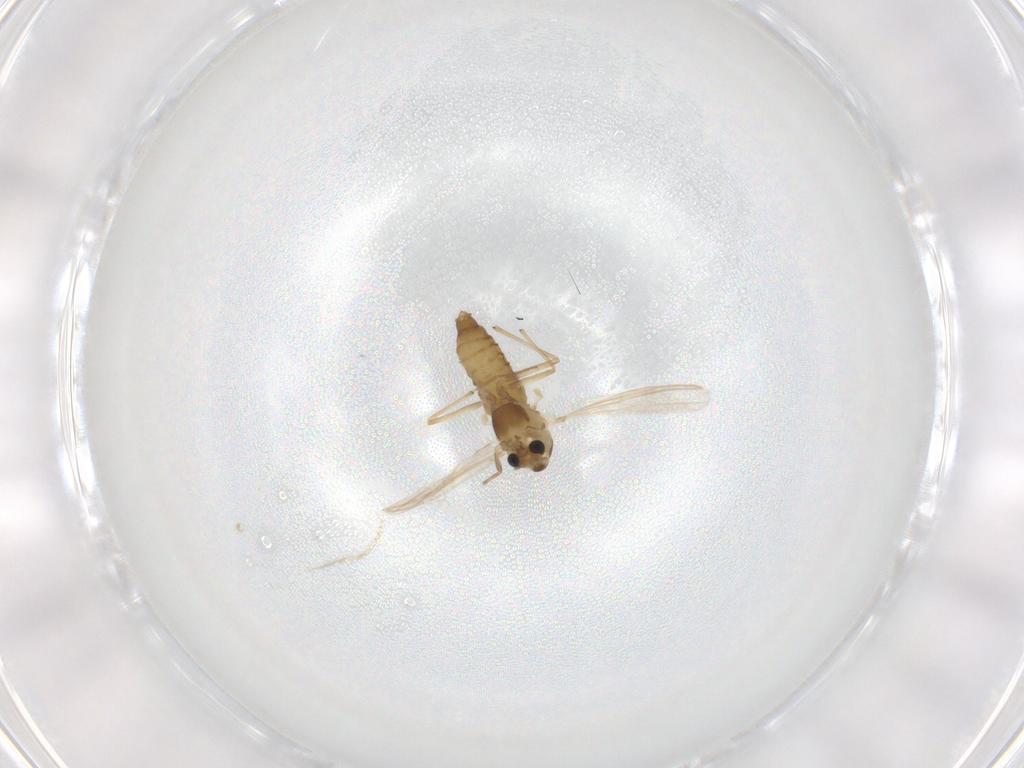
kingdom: Animalia
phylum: Arthropoda
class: Insecta
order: Diptera
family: Chironomidae
